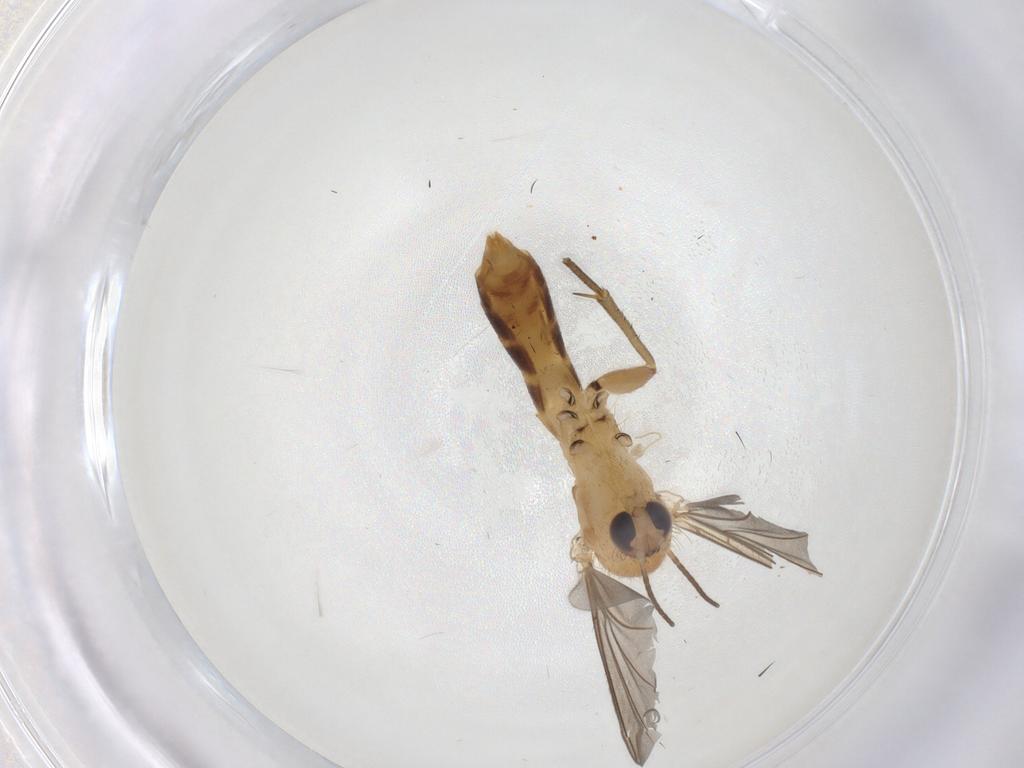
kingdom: Animalia
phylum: Arthropoda
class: Insecta
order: Diptera
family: Mycetophilidae
